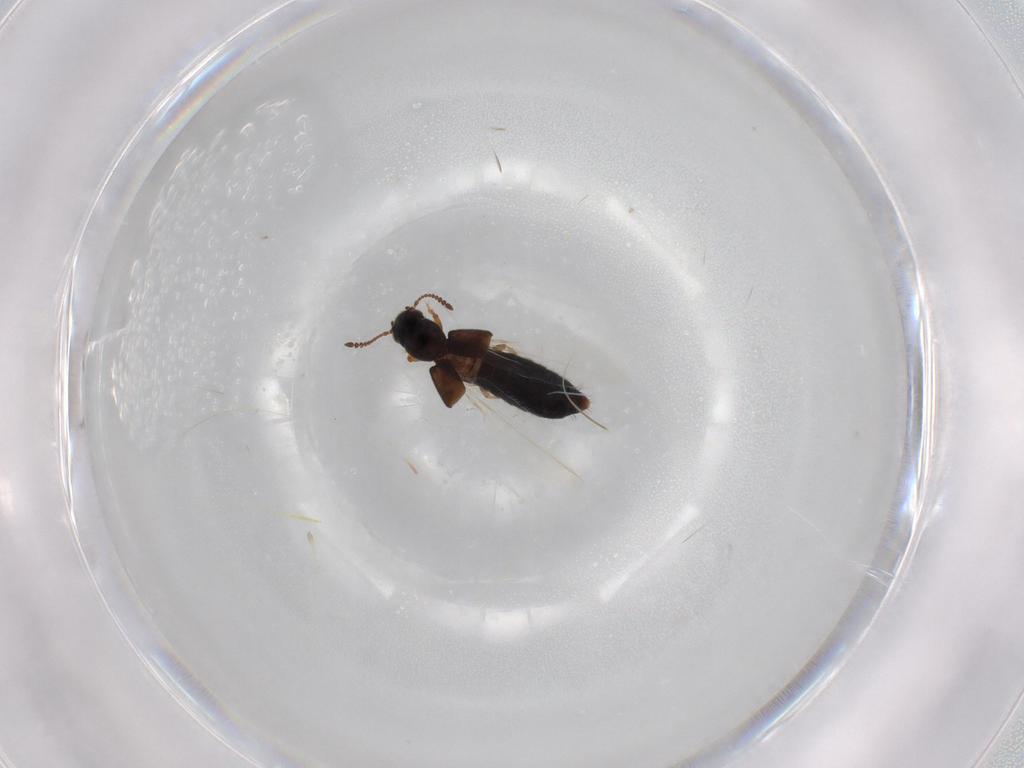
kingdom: Animalia
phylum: Arthropoda
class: Insecta
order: Coleoptera
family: Staphylinidae
